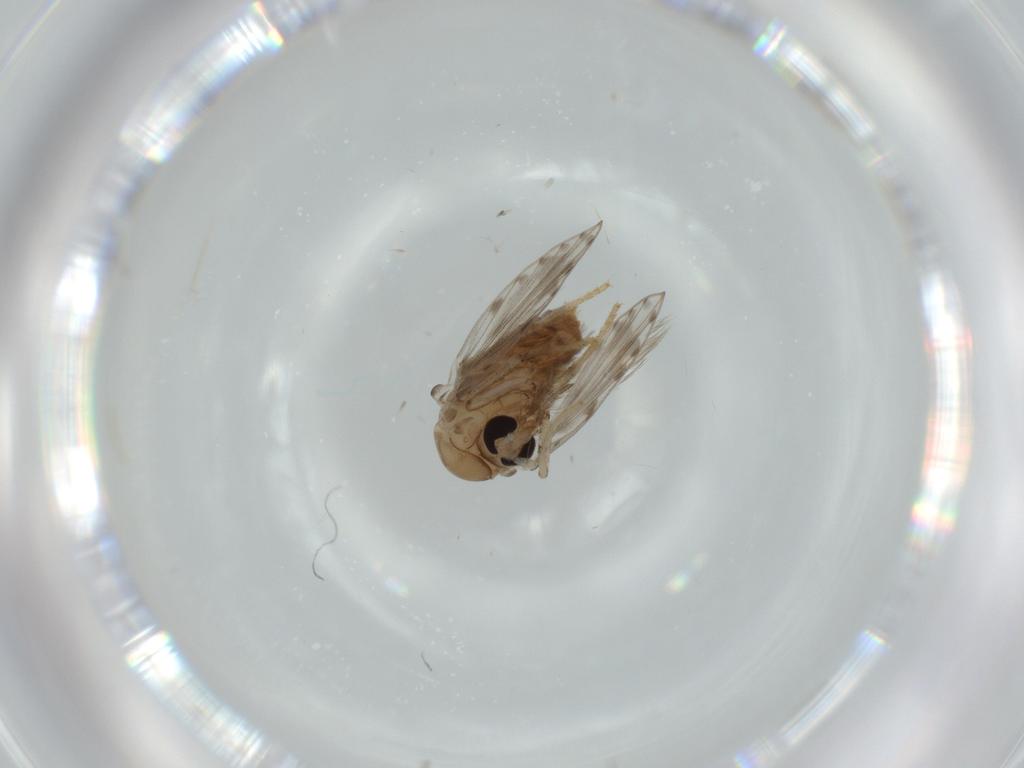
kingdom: Animalia
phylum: Arthropoda
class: Insecta
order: Diptera
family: Psychodidae
